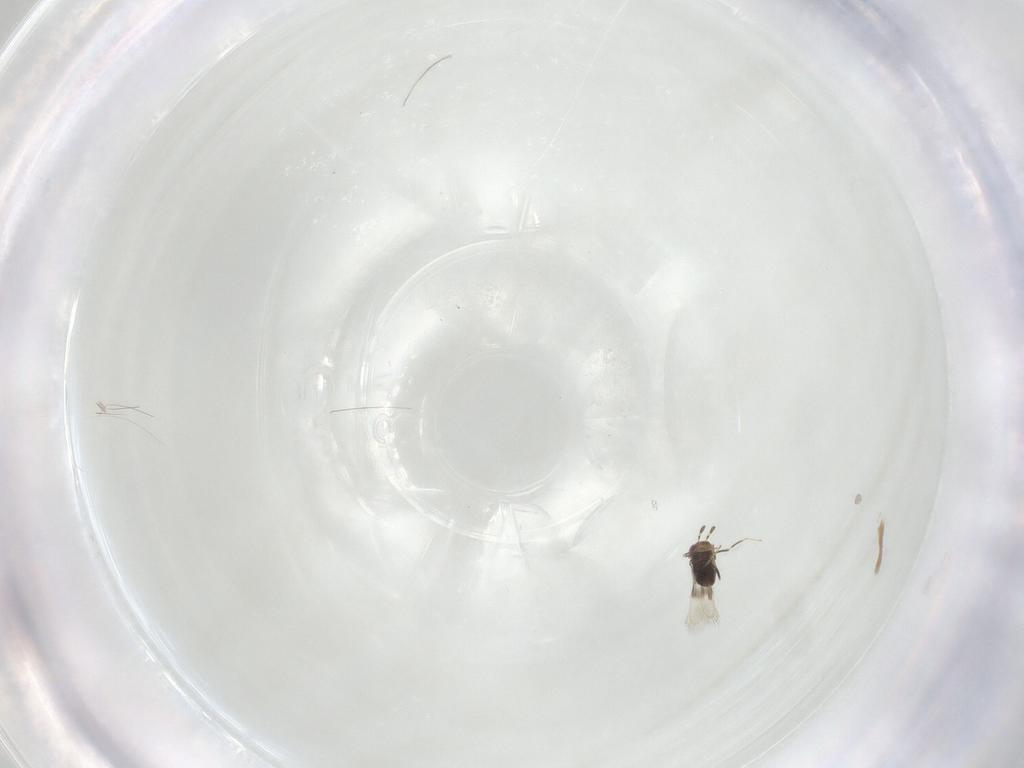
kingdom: Animalia
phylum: Arthropoda
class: Insecta
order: Hymenoptera
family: Azotidae
